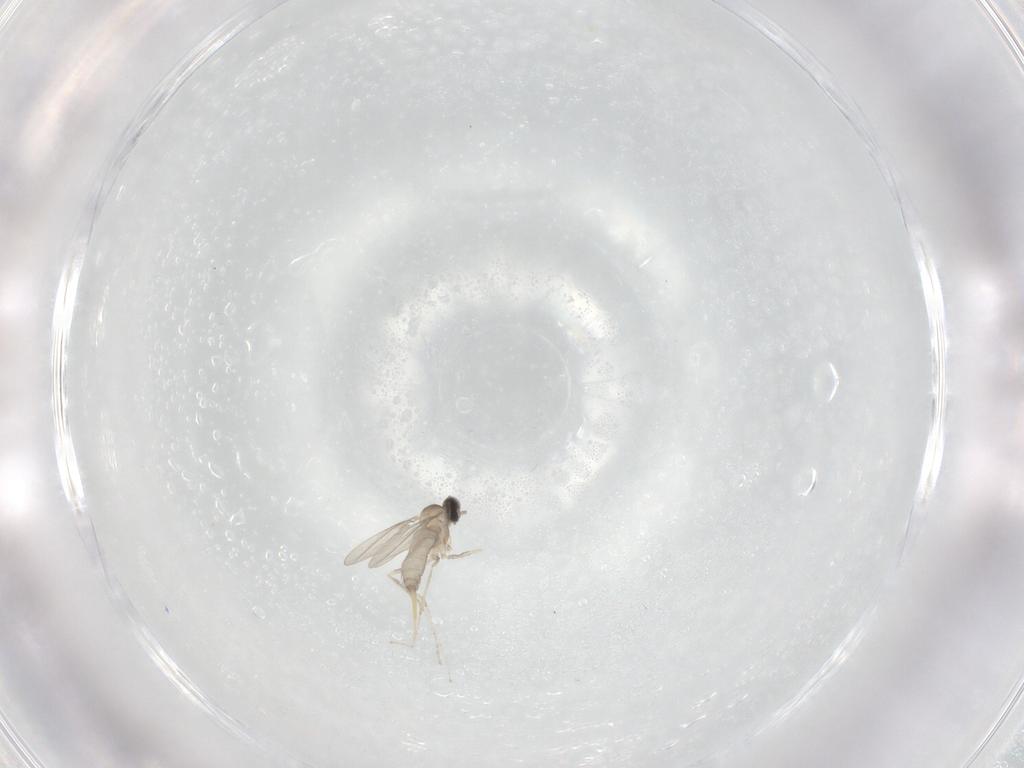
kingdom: Animalia
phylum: Arthropoda
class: Insecta
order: Diptera
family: Cecidomyiidae
